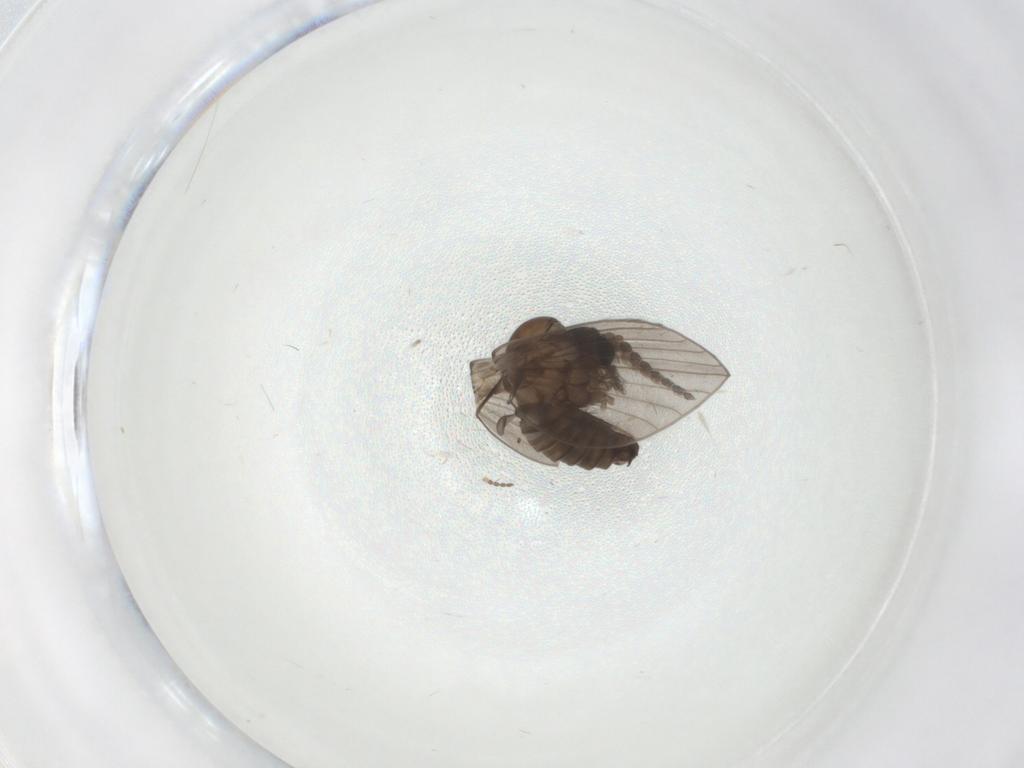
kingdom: Animalia
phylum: Arthropoda
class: Insecta
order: Diptera
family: Psychodidae
